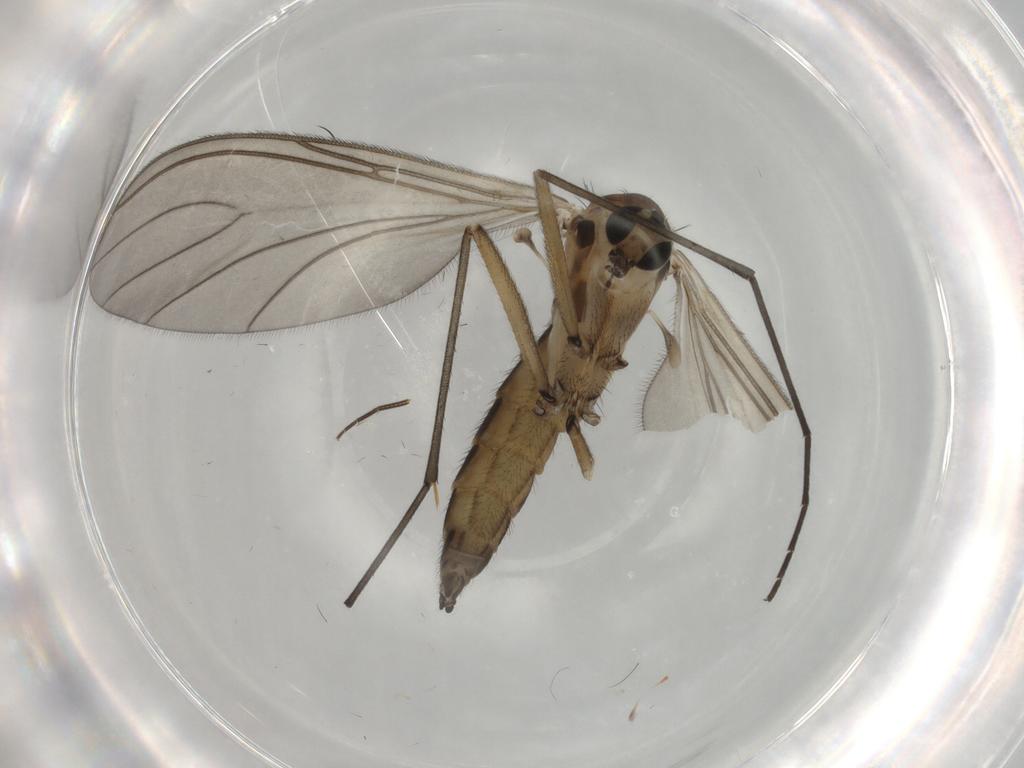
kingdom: Animalia
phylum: Arthropoda
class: Insecta
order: Diptera
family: Sciaridae
